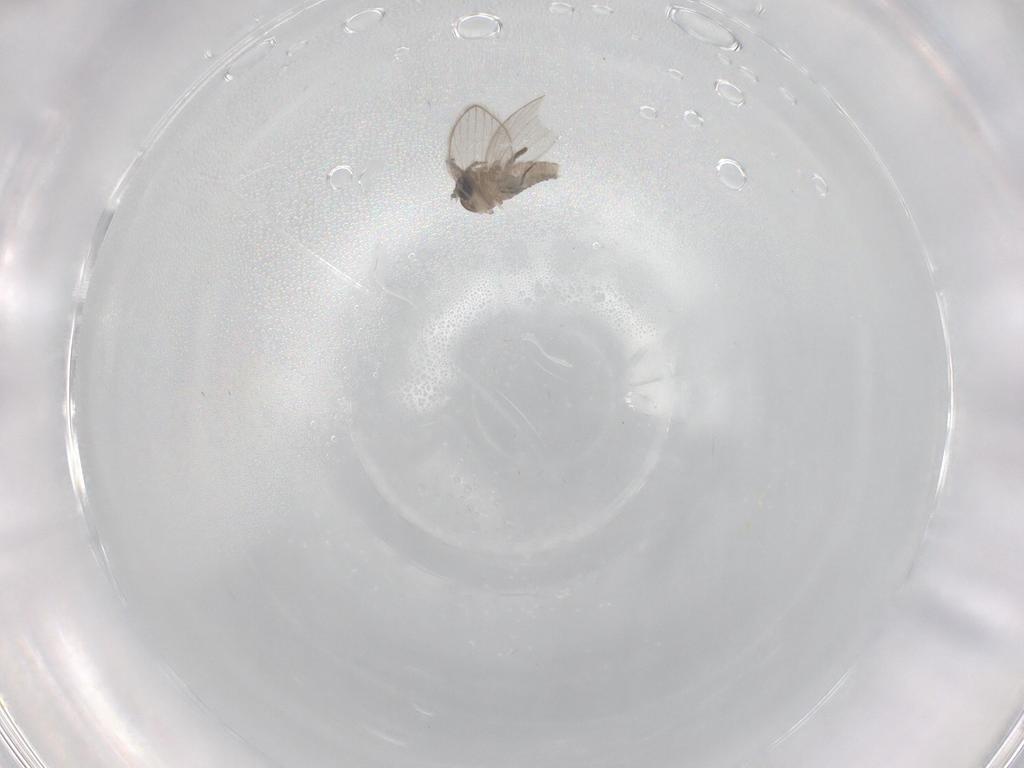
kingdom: Animalia
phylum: Arthropoda
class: Insecta
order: Diptera
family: Psychodidae
